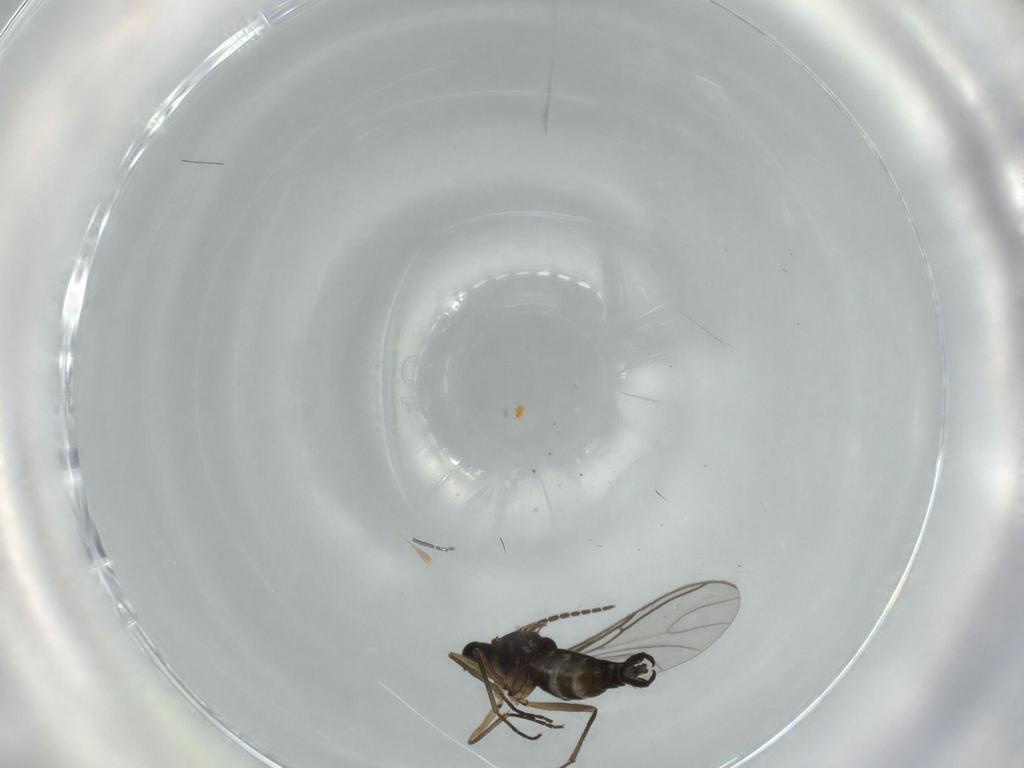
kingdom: Animalia
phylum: Arthropoda
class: Insecta
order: Diptera
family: Sciaridae
